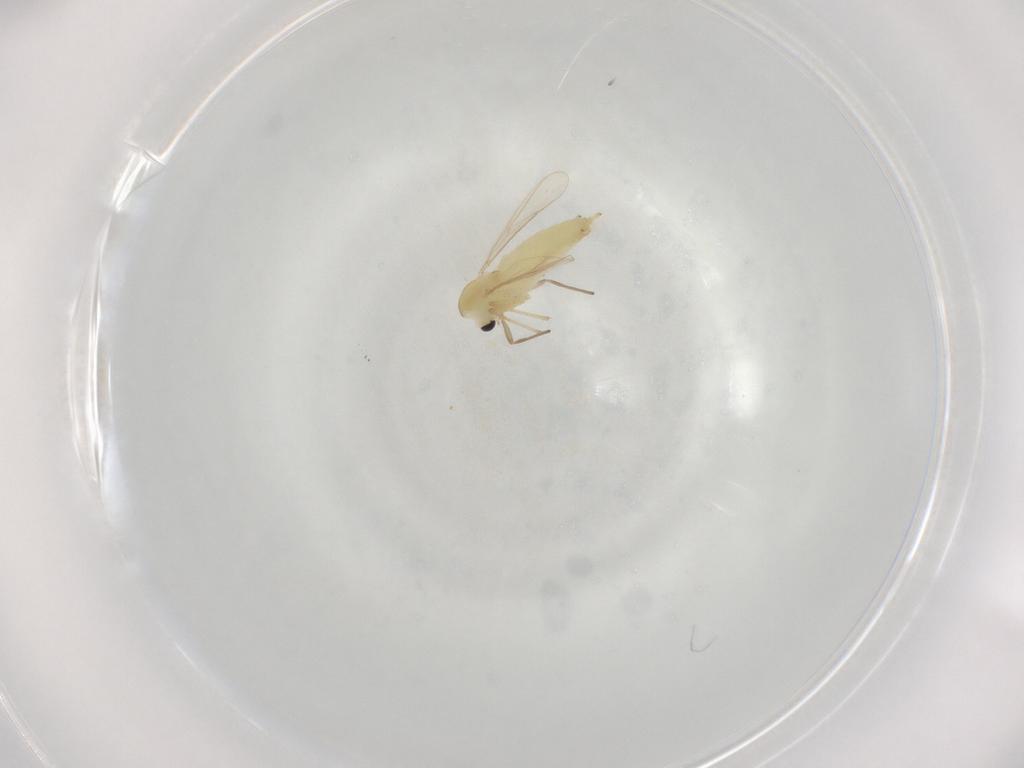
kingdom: Animalia
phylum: Arthropoda
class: Insecta
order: Diptera
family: Chironomidae
